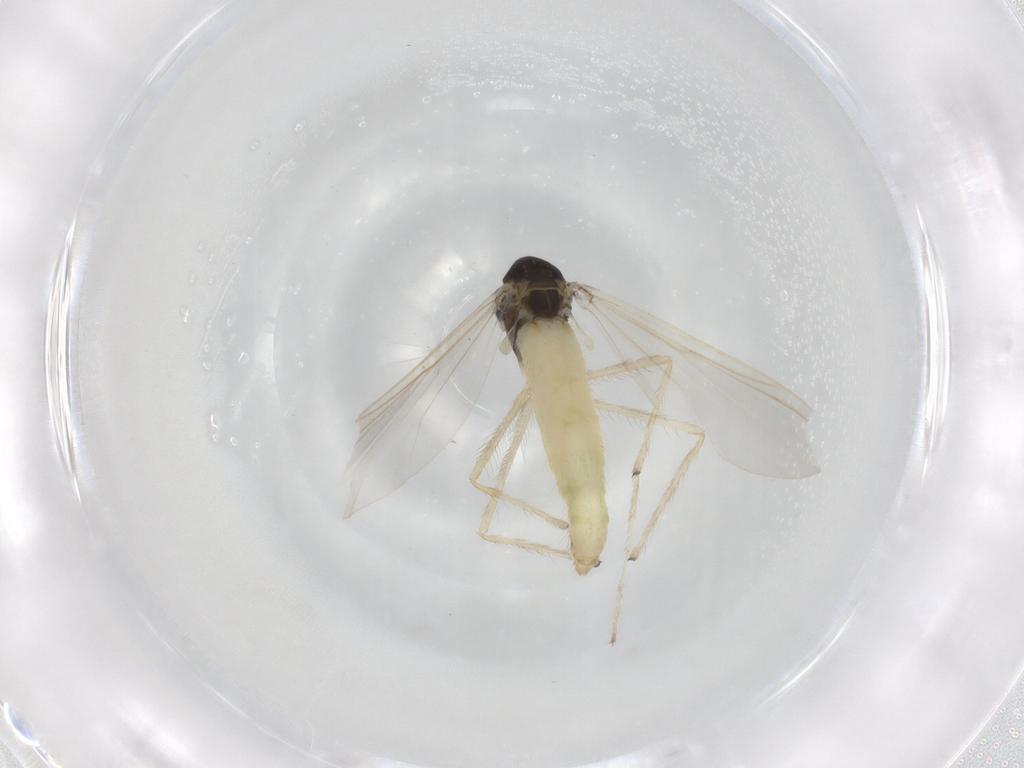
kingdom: Animalia
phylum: Arthropoda
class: Insecta
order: Diptera
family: Chironomidae
